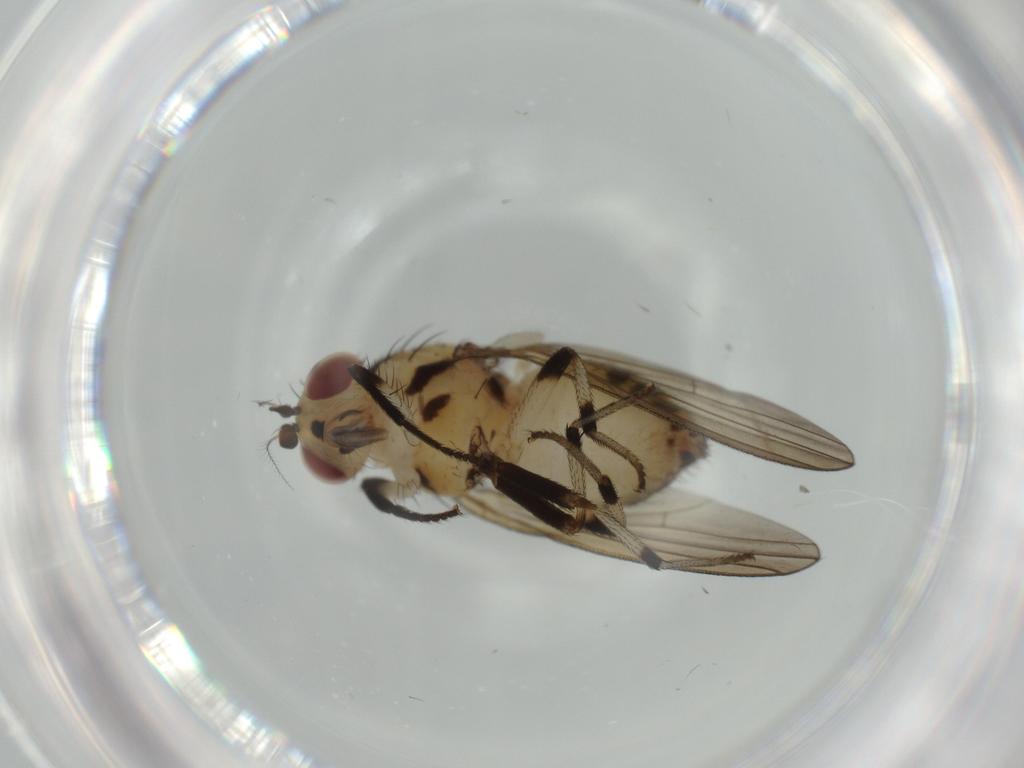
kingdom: Animalia
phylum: Arthropoda
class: Insecta
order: Diptera
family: Lauxaniidae
